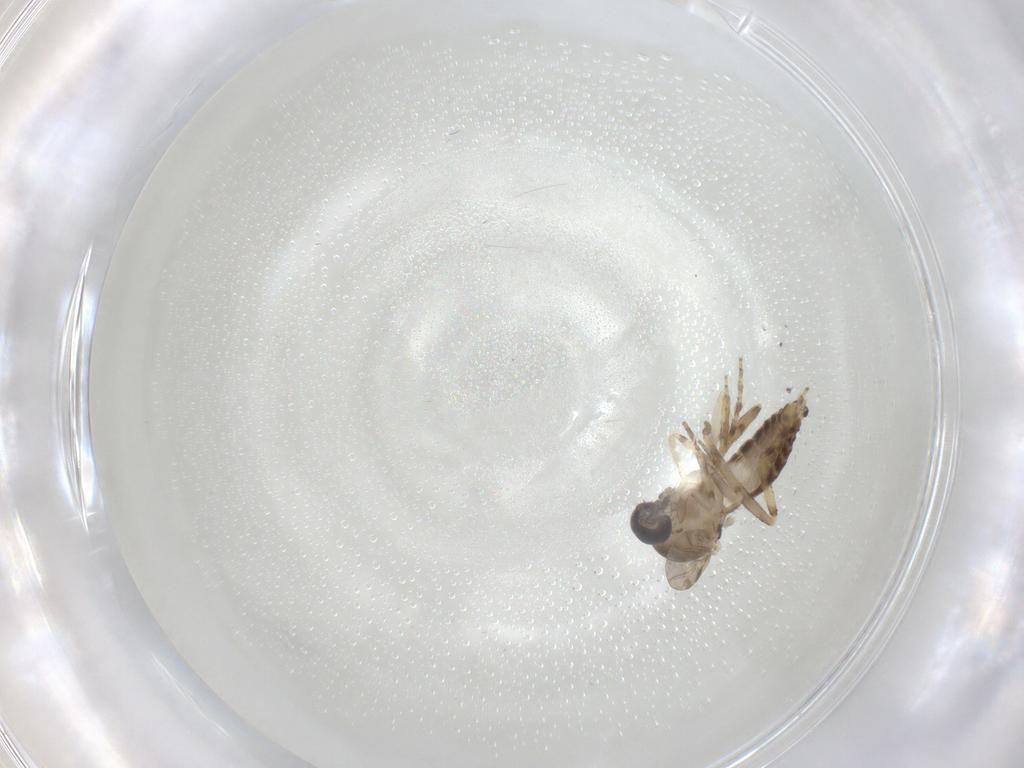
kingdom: Animalia
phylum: Arthropoda
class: Insecta
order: Diptera
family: Ceratopogonidae
